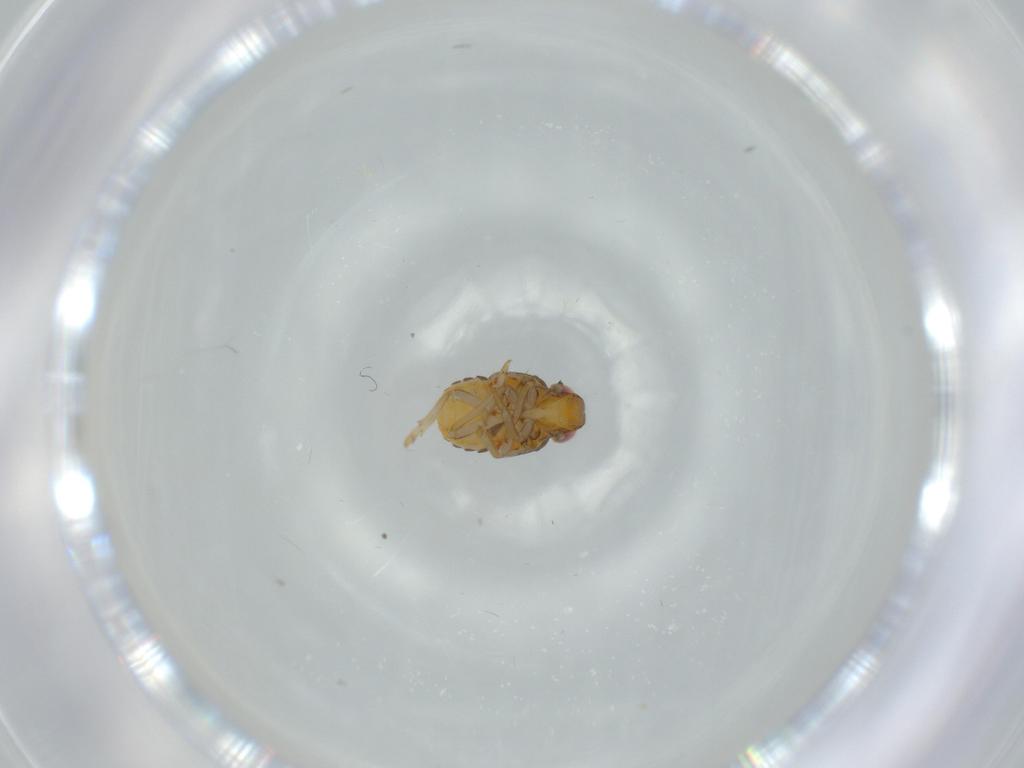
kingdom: Animalia
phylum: Arthropoda
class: Insecta
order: Hemiptera
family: Issidae
